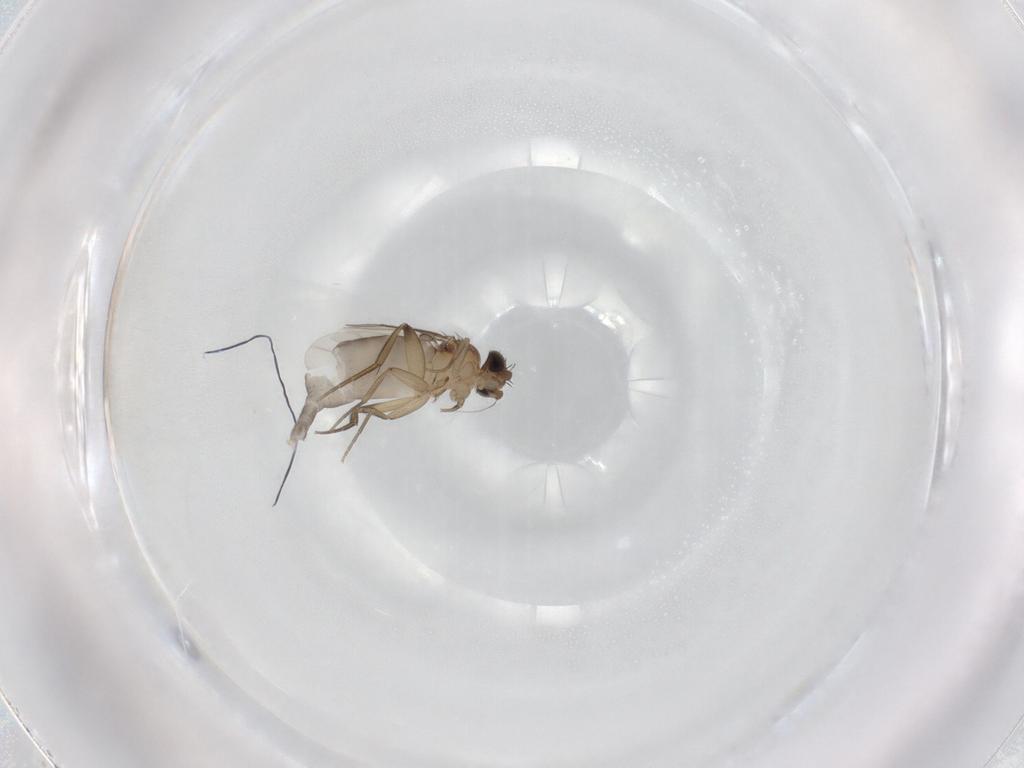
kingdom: Animalia
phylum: Arthropoda
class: Insecta
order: Diptera
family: Phoridae
